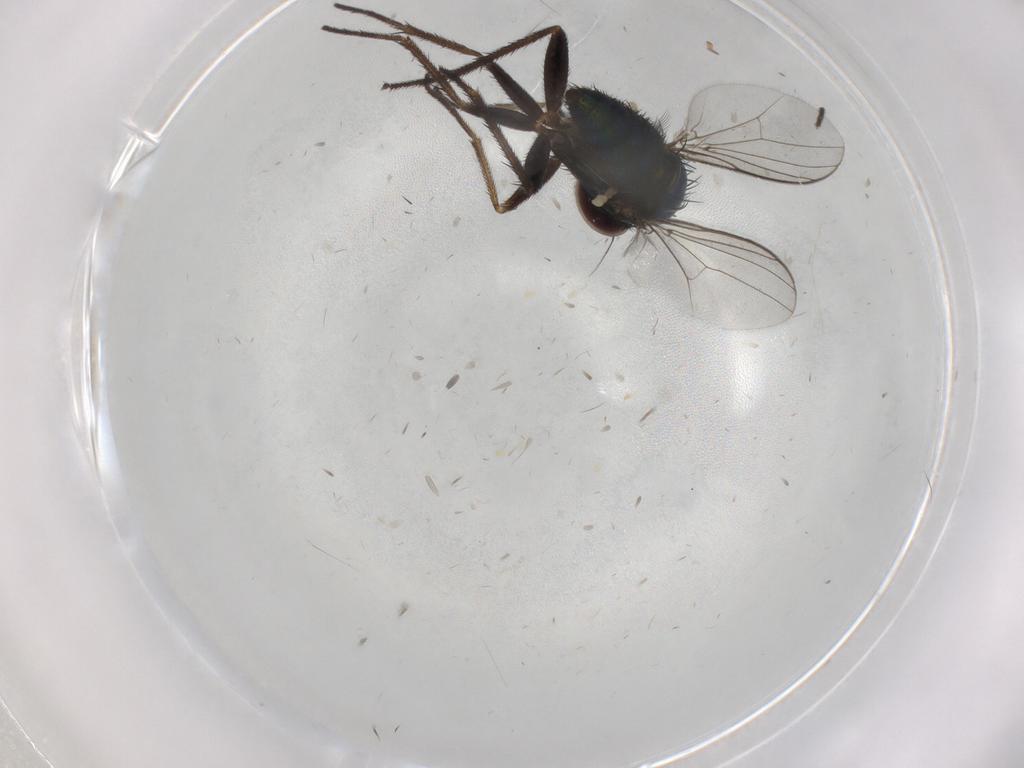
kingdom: Animalia
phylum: Arthropoda
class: Insecta
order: Diptera
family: Dolichopodidae
